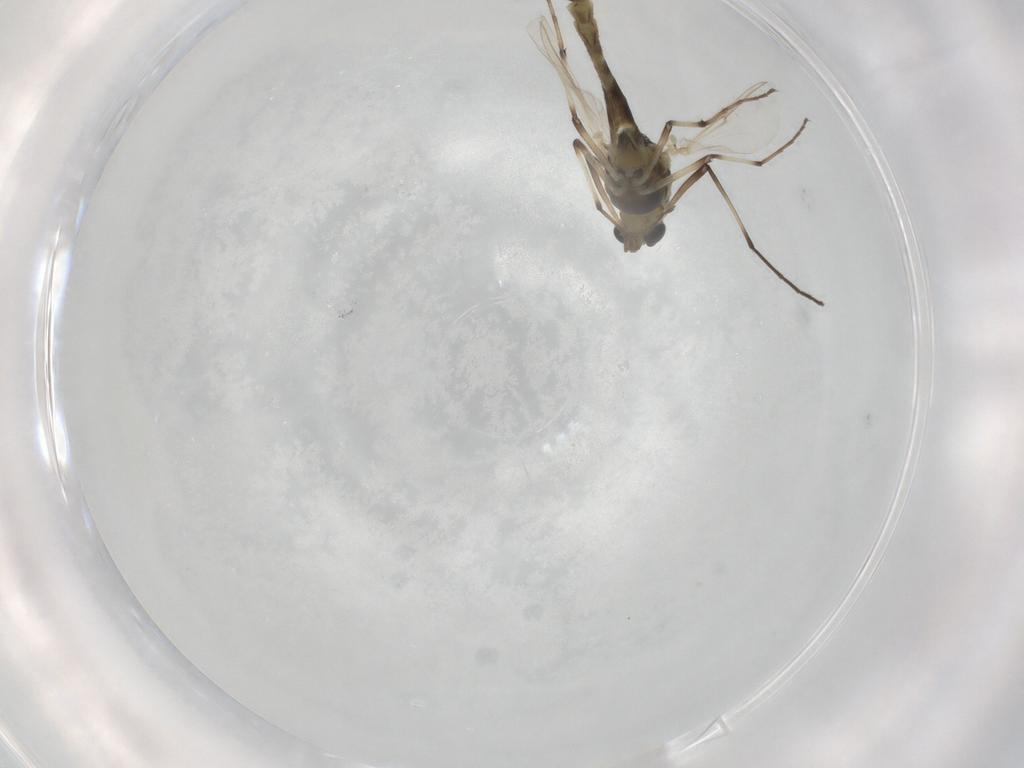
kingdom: Animalia
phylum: Arthropoda
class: Insecta
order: Diptera
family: Chironomidae
